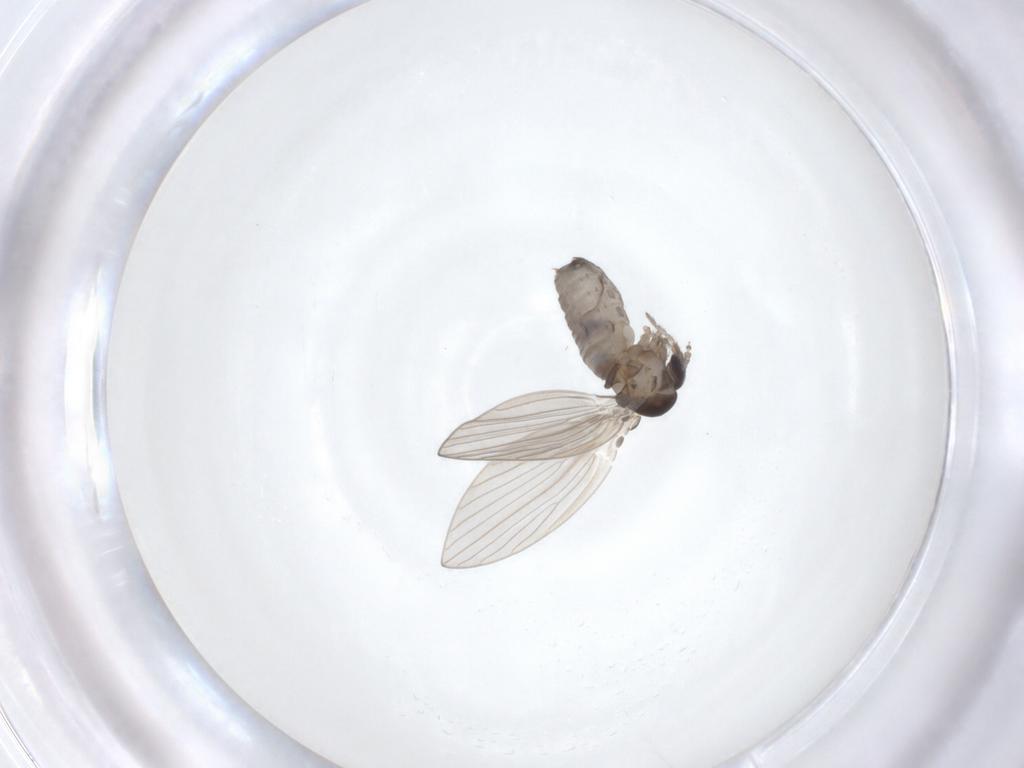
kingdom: Animalia
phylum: Arthropoda
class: Insecta
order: Diptera
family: Psychodidae
